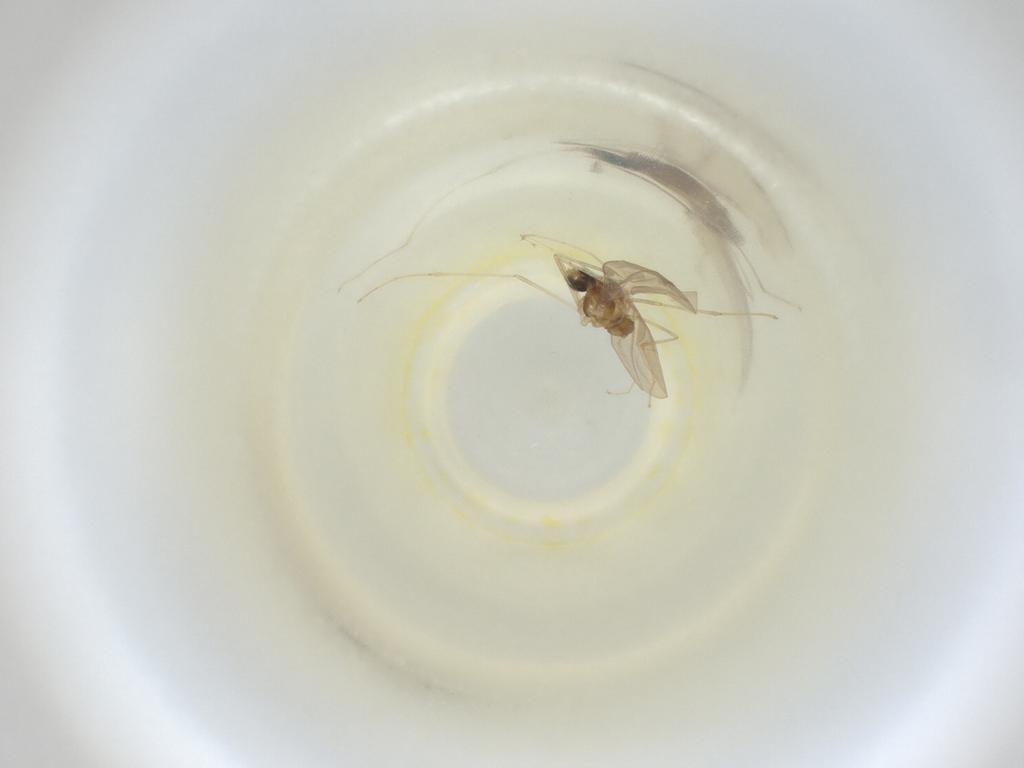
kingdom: Animalia
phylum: Arthropoda
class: Insecta
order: Diptera
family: Cecidomyiidae
